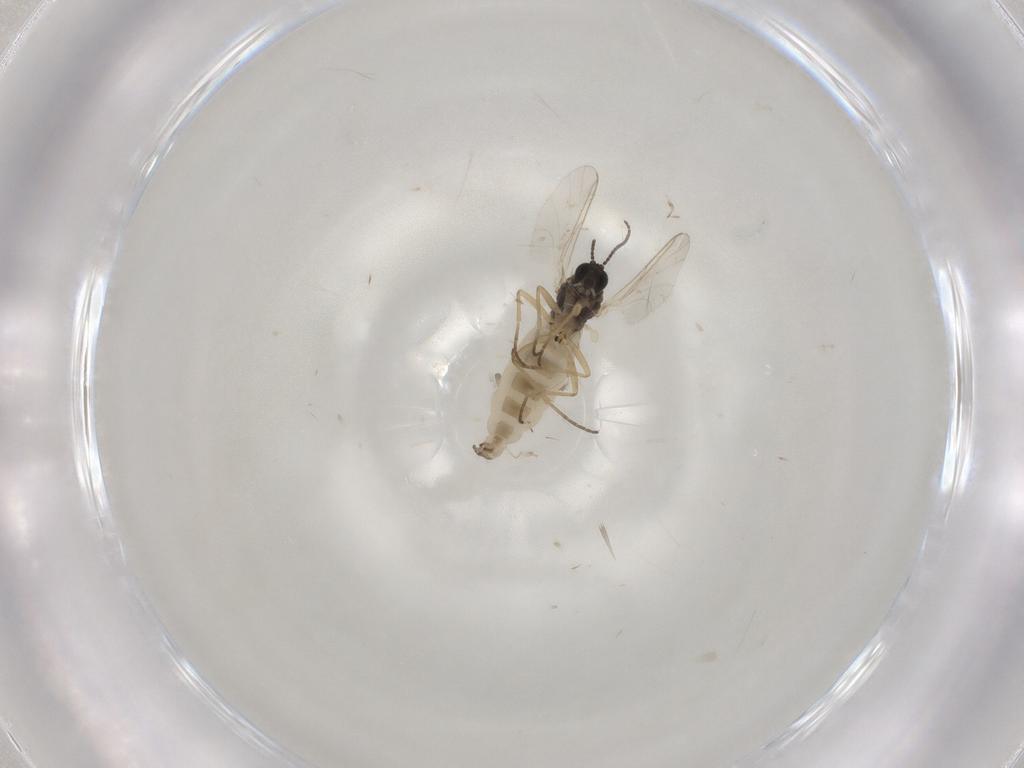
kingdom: Animalia
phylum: Arthropoda
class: Insecta
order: Diptera
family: Sciaridae
